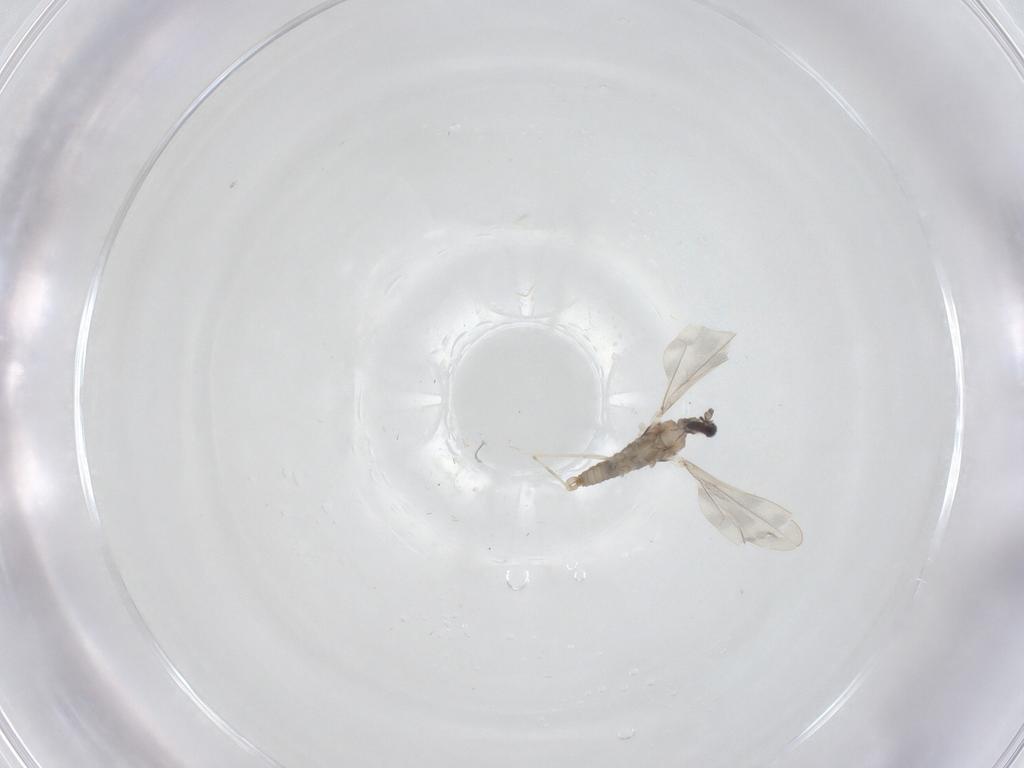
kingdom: Animalia
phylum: Arthropoda
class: Insecta
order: Diptera
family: Cecidomyiidae
